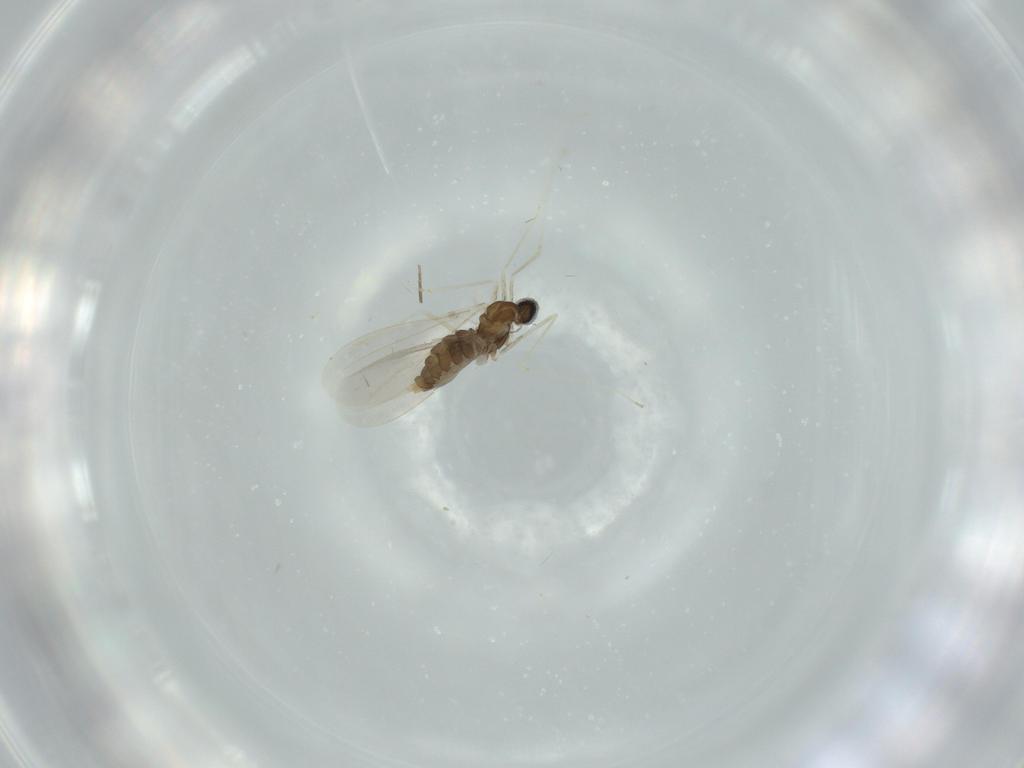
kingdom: Animalia
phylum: Arthropoda
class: Insecta
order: Diptera
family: Cecidomyiidae
